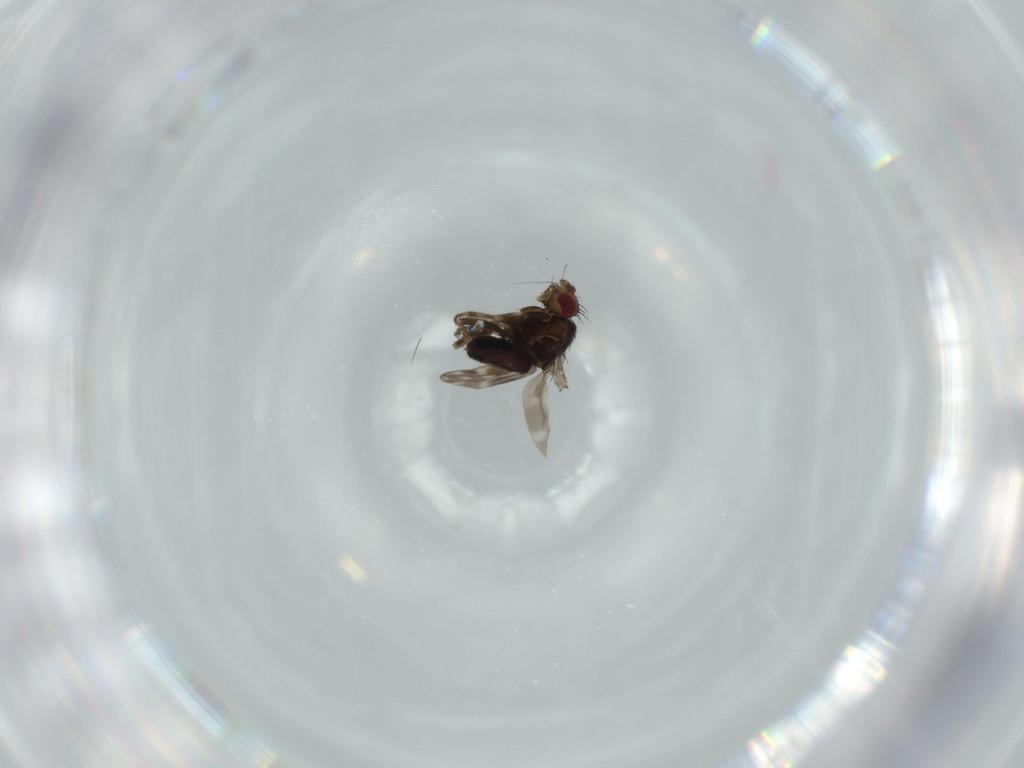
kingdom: Animalia
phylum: Arthropoda
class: Insecta
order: Diptera
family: Sphaeroceridae
